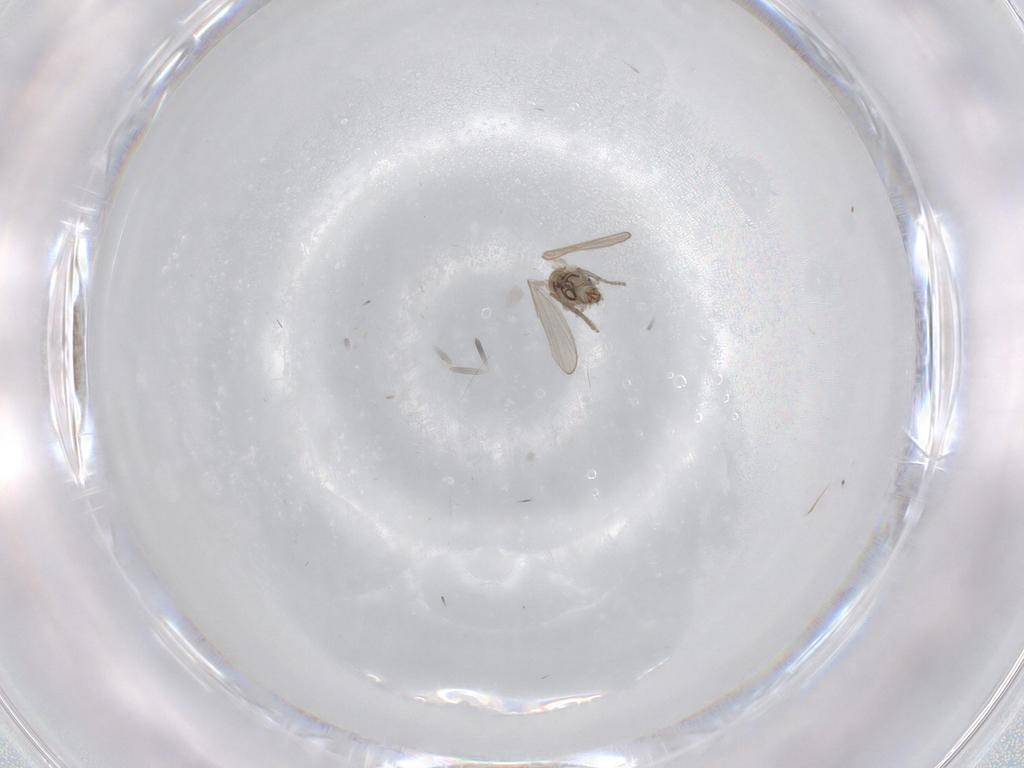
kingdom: Animalia
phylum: Arthropoda
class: Insecta
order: Diptera
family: Psychodidae
